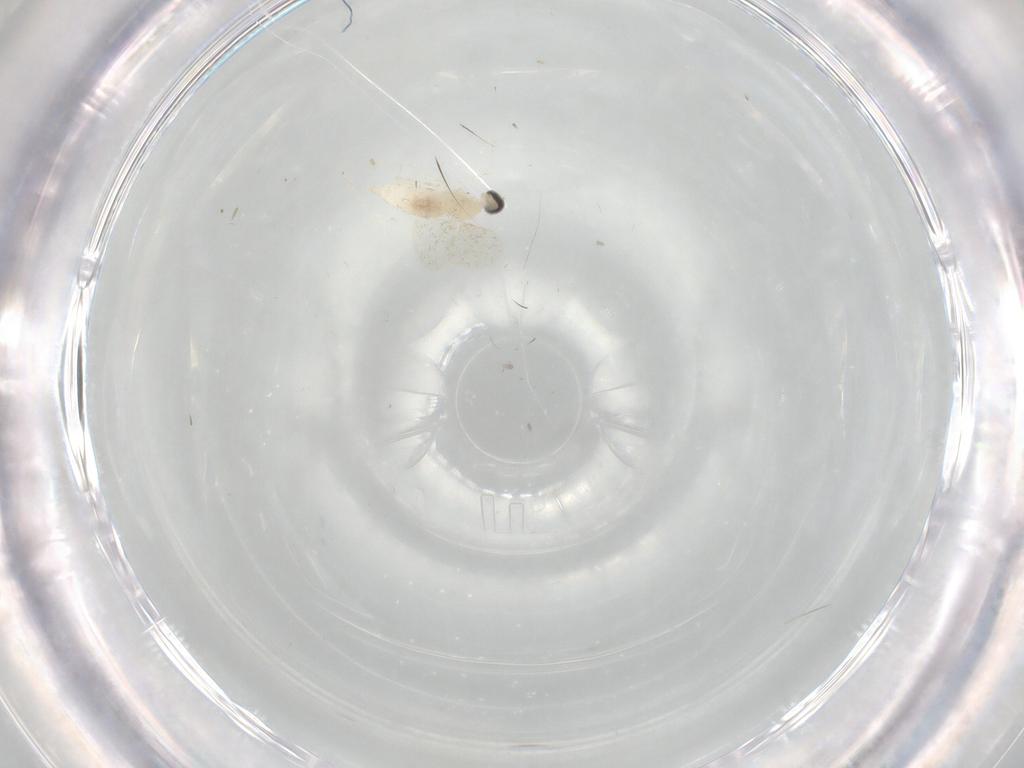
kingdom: Animalia
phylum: Arthropoda
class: Insecta
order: Diptera
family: Cecidomyiidae
